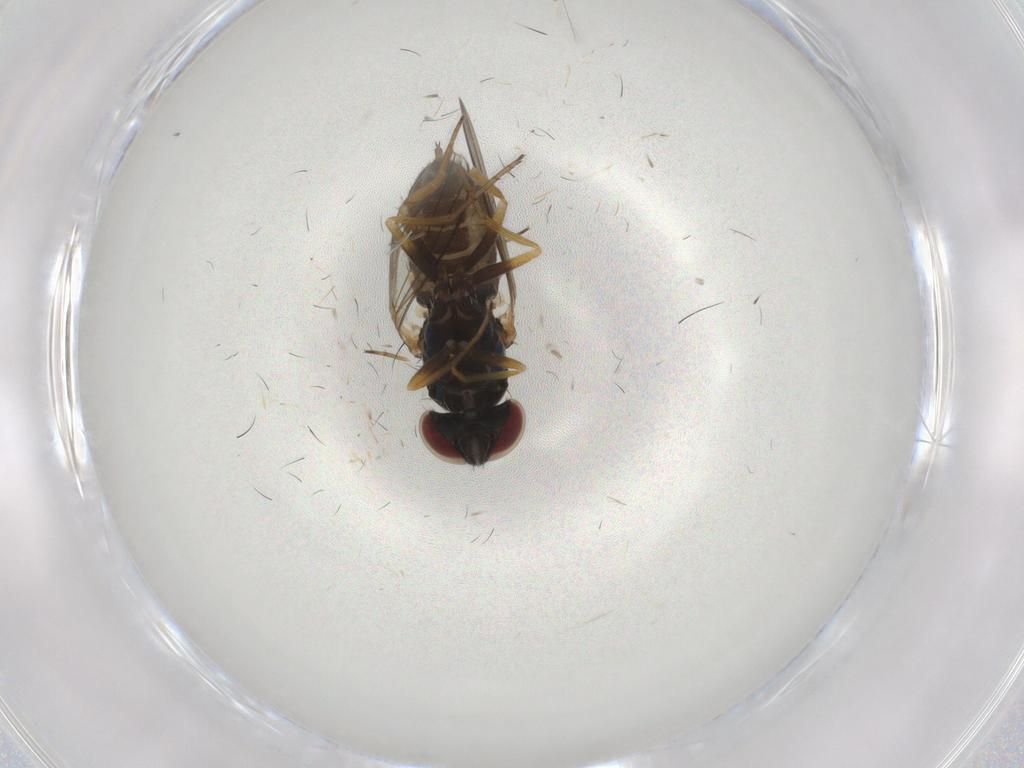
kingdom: Animalia
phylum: Arthropoda
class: Insecta
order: Diptera
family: Dolichopodidae
